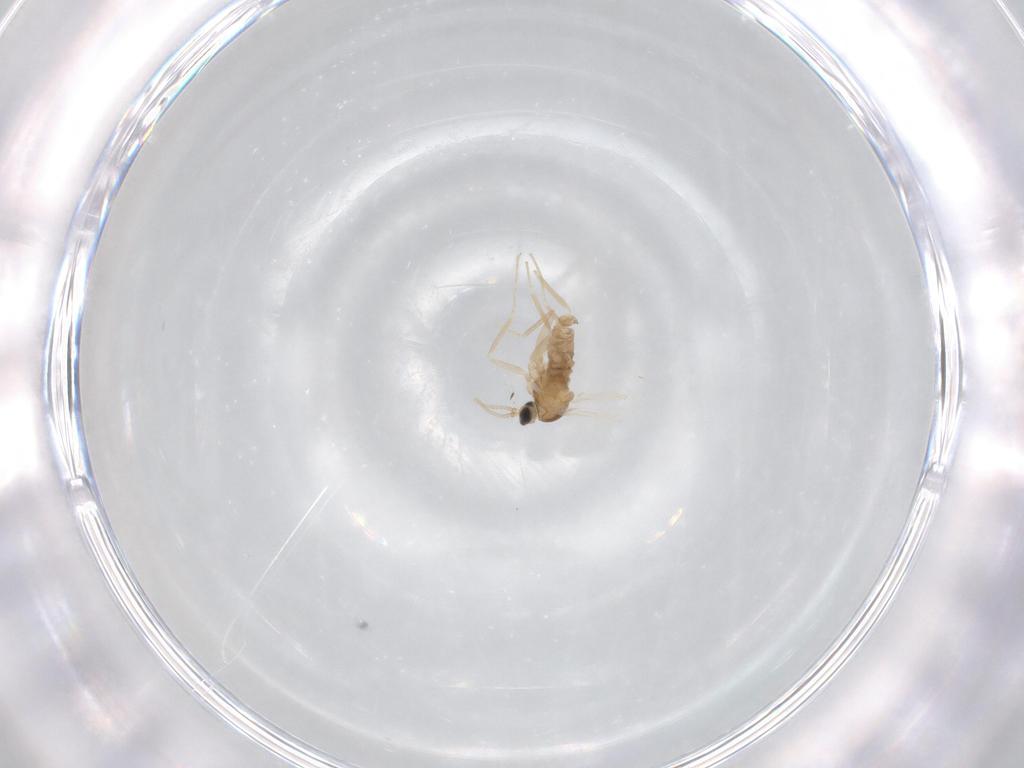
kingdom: Animalia
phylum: Arthropoda
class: Insecta
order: Diptera
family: Cecidomyiidae
